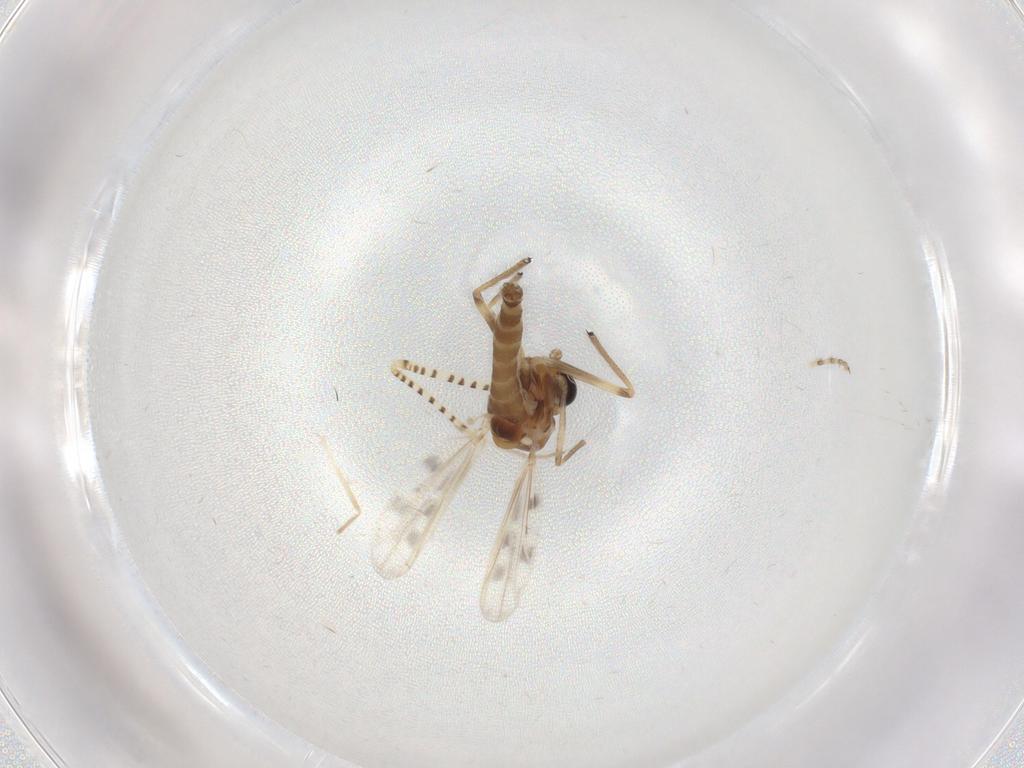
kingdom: Animalia
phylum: Arthropoda
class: Insecta
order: Diptera
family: Chironomidae
